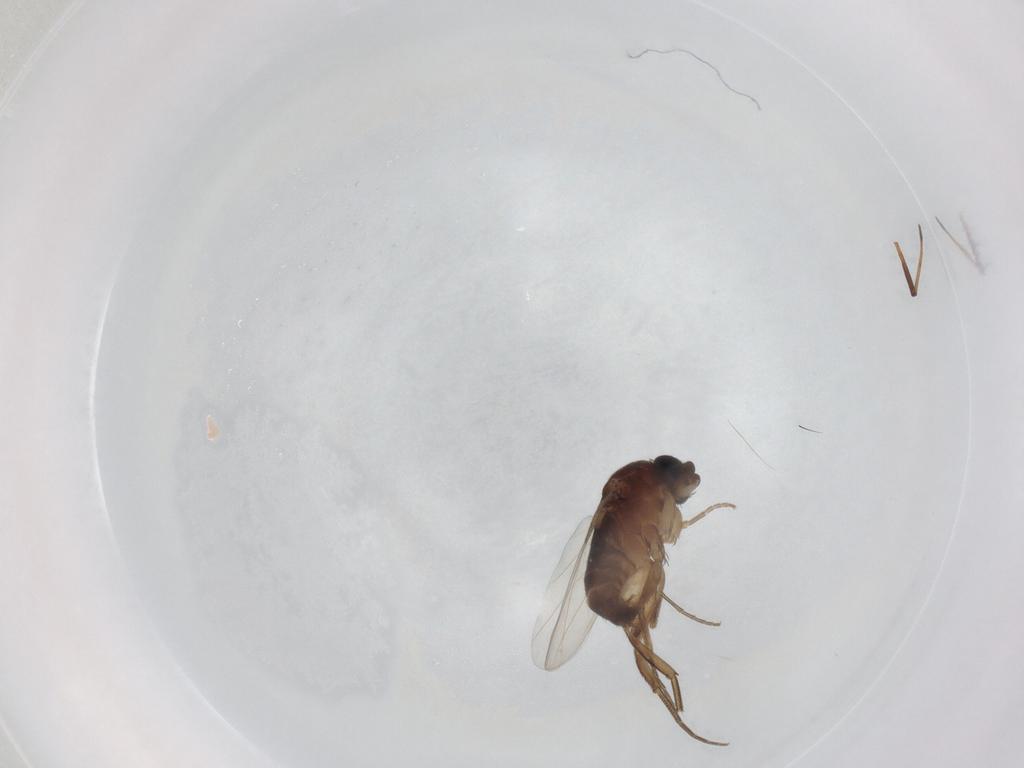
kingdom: Animalia
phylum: Arthropoda
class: Insecta
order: Diptera
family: Phoridae
